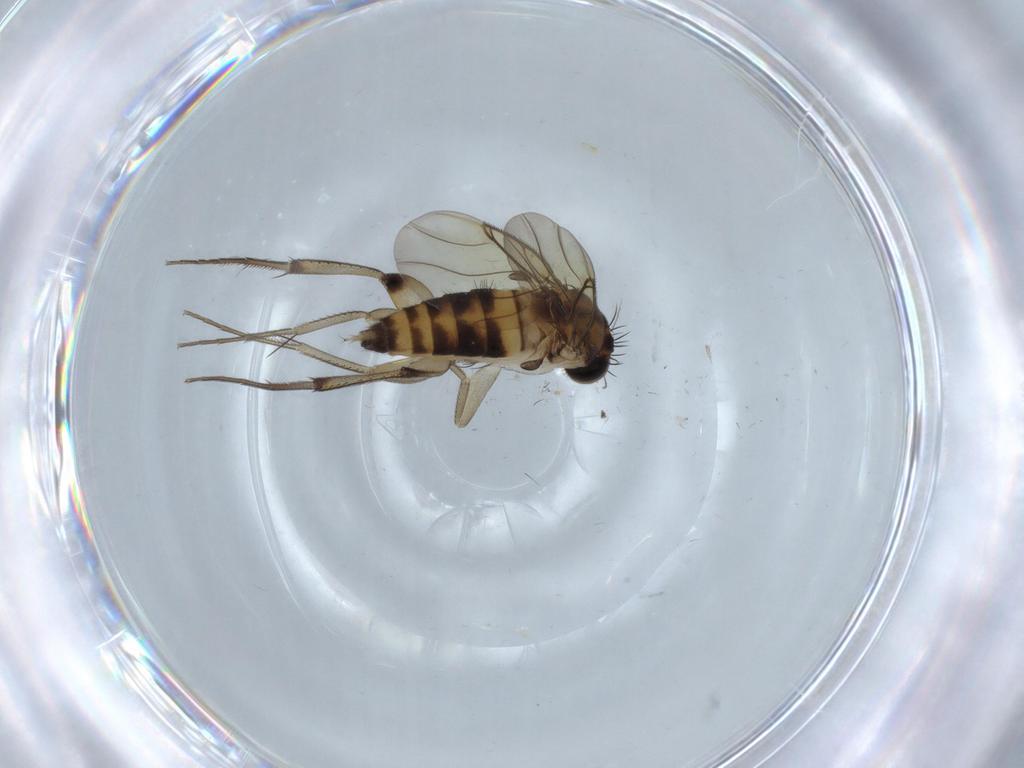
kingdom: Animalia
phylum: Arthropoda
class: Insecta
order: Diptera
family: Phoridae
